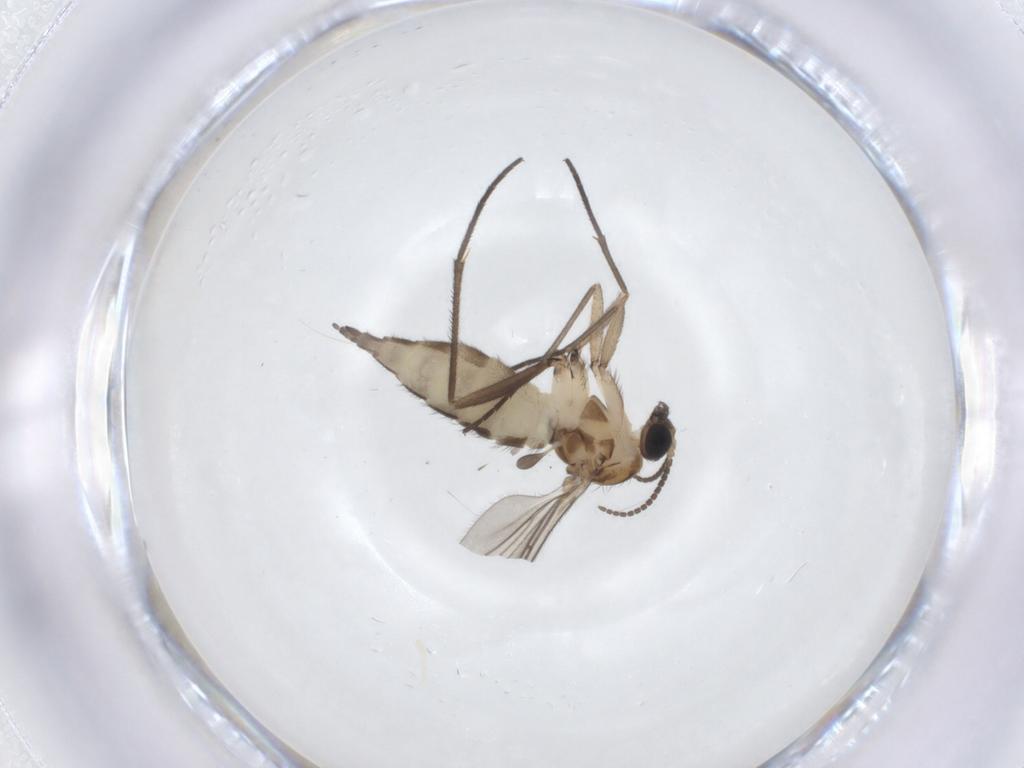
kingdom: Animalia
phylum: Arthropoda
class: Insecta
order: Diptera
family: Sciaridae
